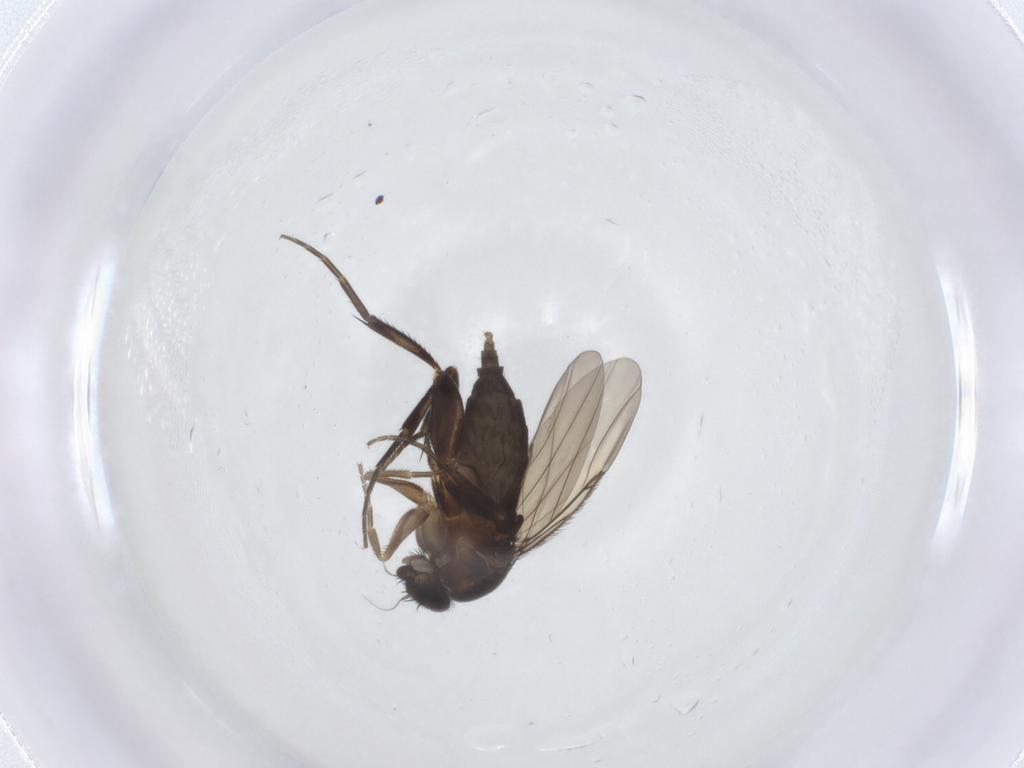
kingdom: Animalia
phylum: Arthropoda
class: Insecta
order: Diptera
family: Phoridae
